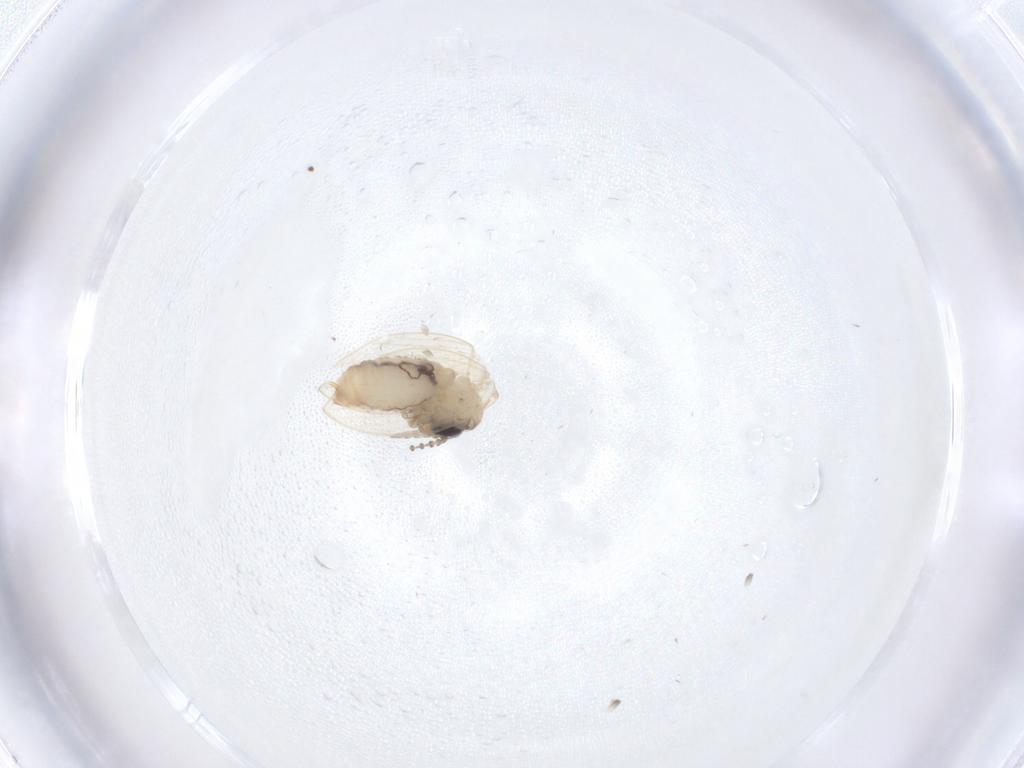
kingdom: Animalia
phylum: Arthropoda
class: Insecta
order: Diptera
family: Psychodidae
